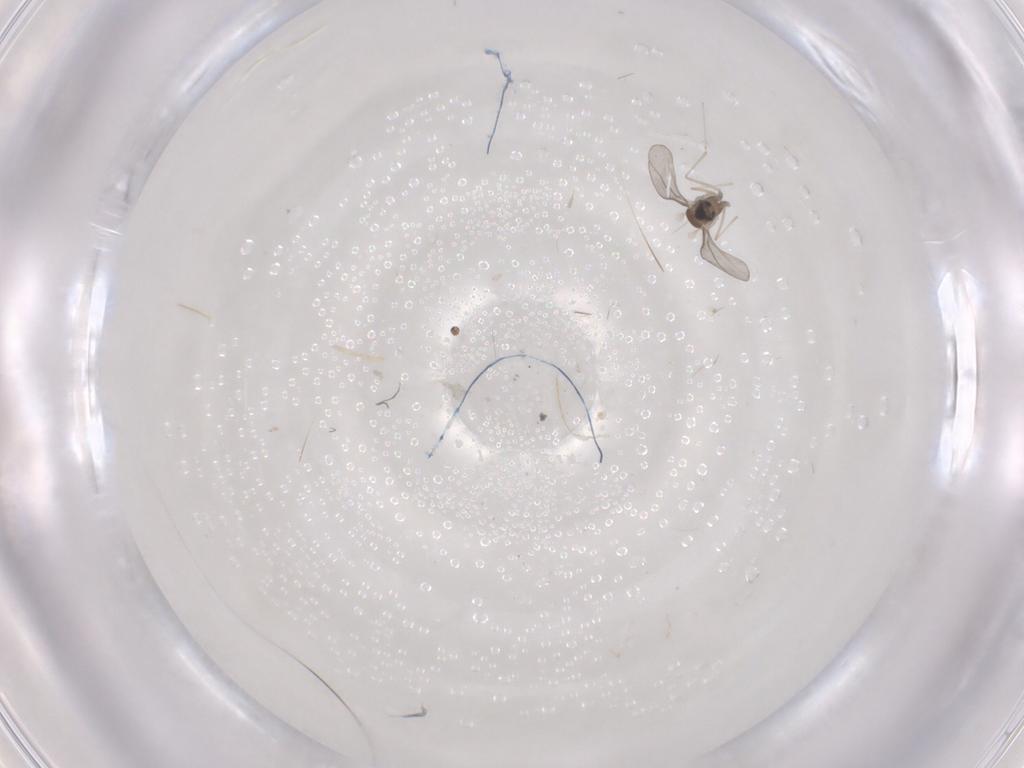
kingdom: Animalia
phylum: Arthropoda
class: Insecta
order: Diptera
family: Cecidomyiidae
